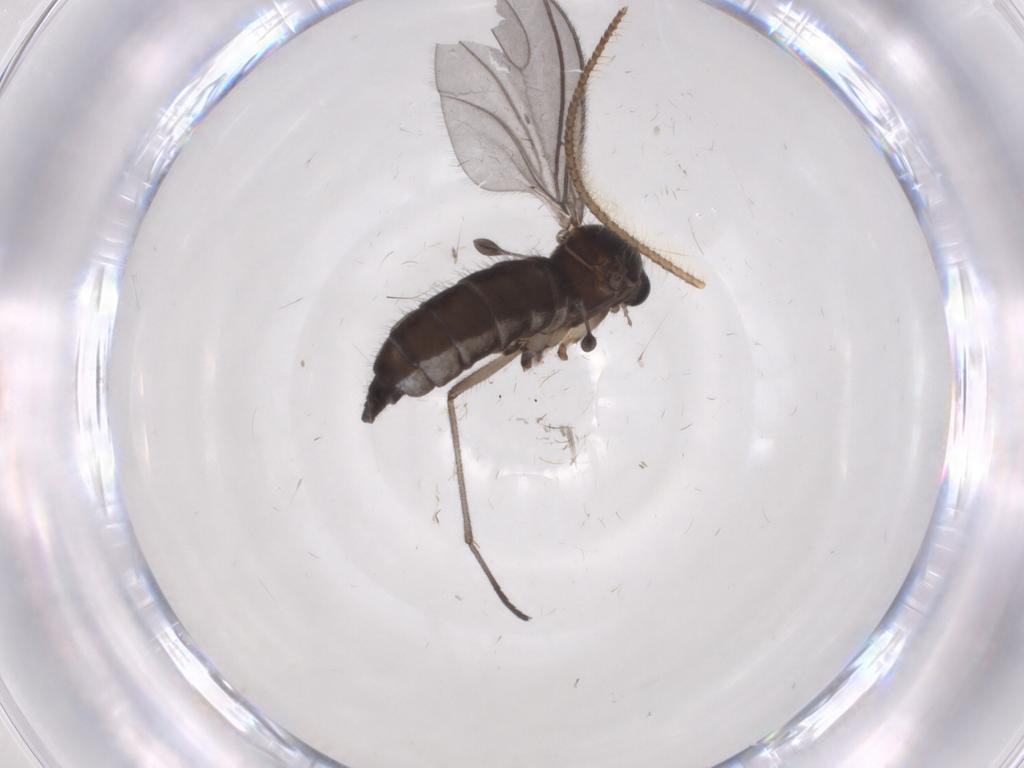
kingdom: Animalia
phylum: Arthropoda
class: Insecta
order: Diptera
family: Sciaridae
